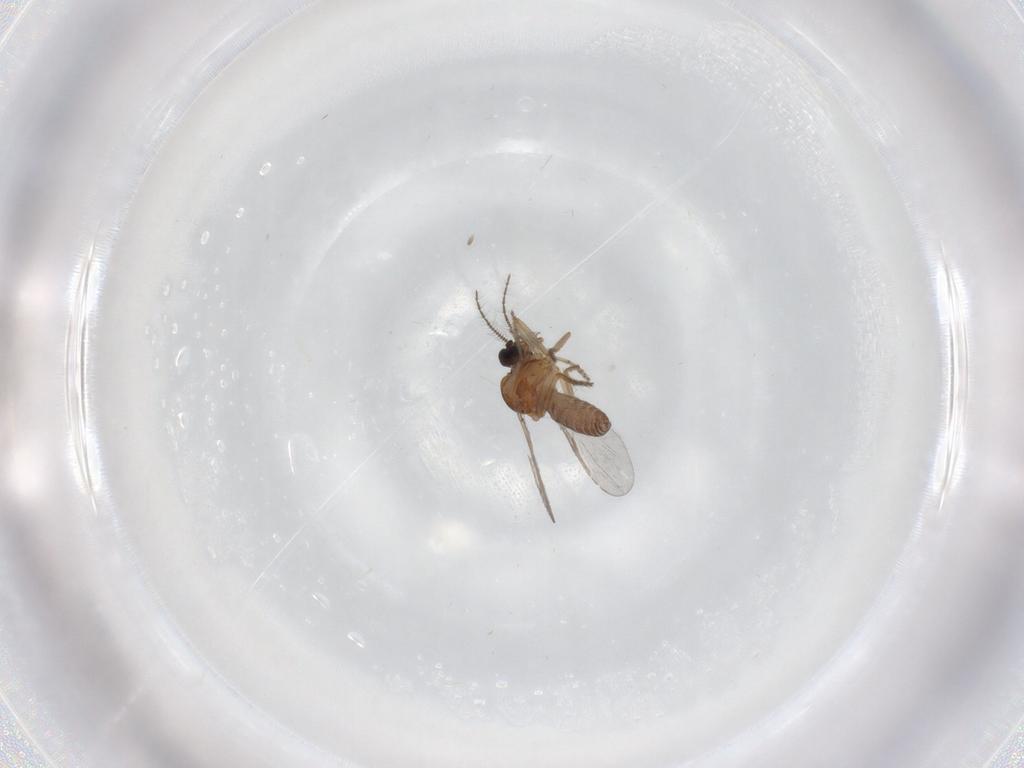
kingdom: Animalia
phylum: Arthropoda
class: Insecta
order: Diptera
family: Ceratopogonidae
